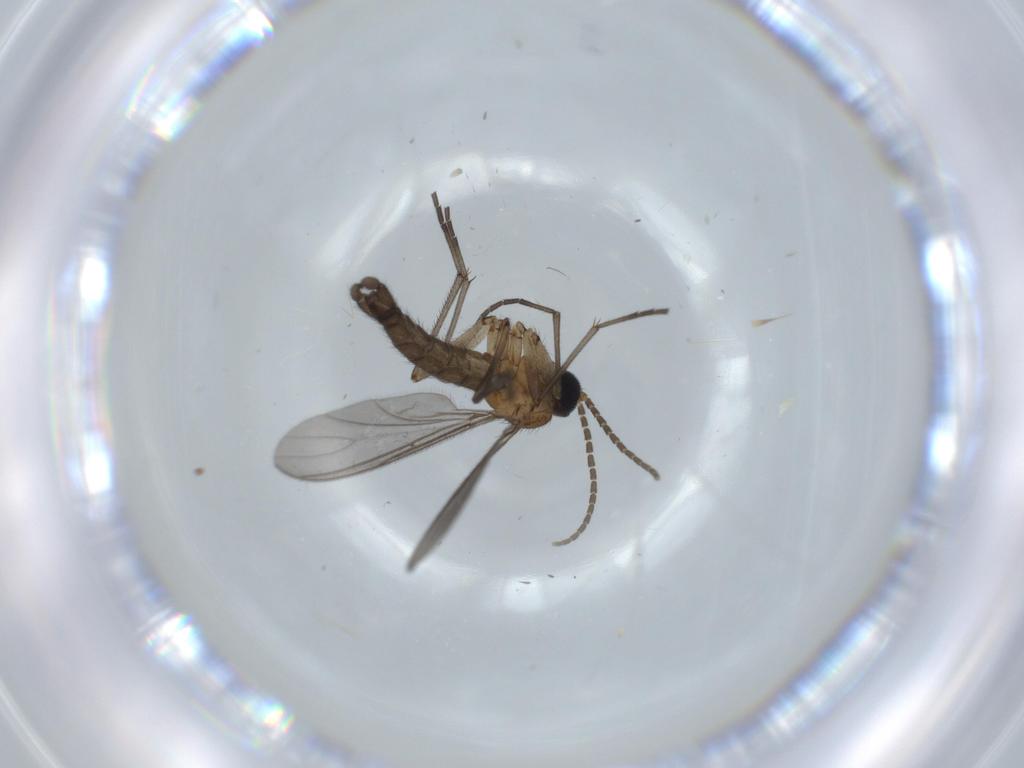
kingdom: Animalia
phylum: Arthropoda
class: Insecta
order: Diptera
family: Sciaridae
